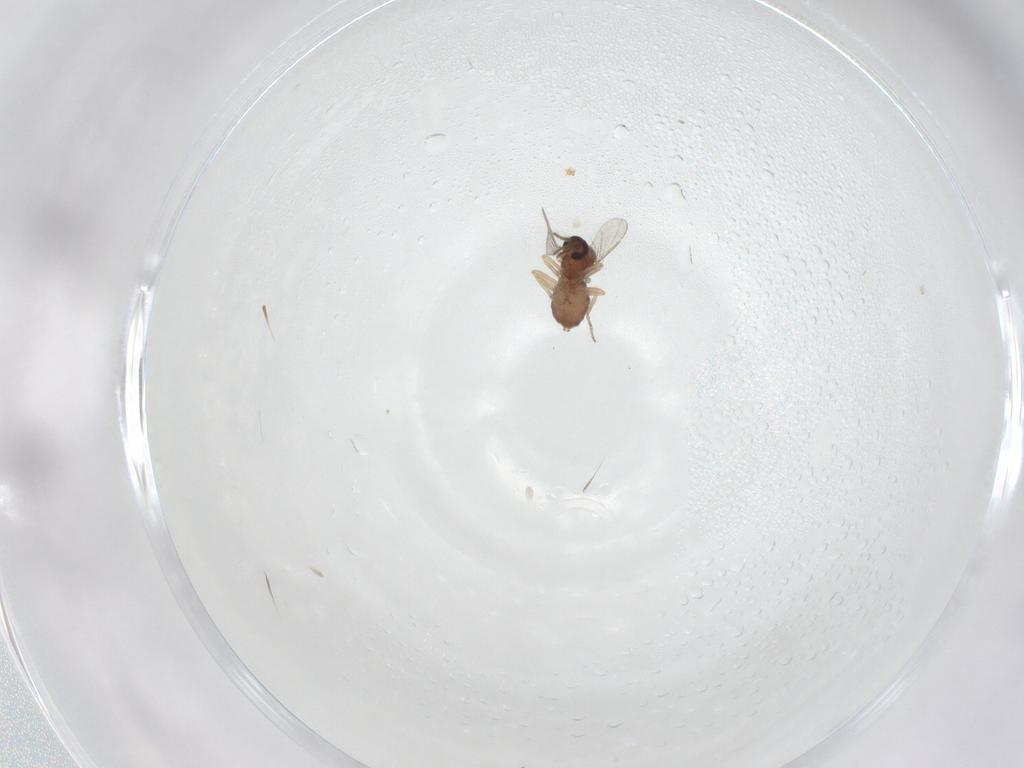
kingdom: Animalia
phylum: Arthropoda
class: Insecta
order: Diptera
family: Ceratopogonidae
